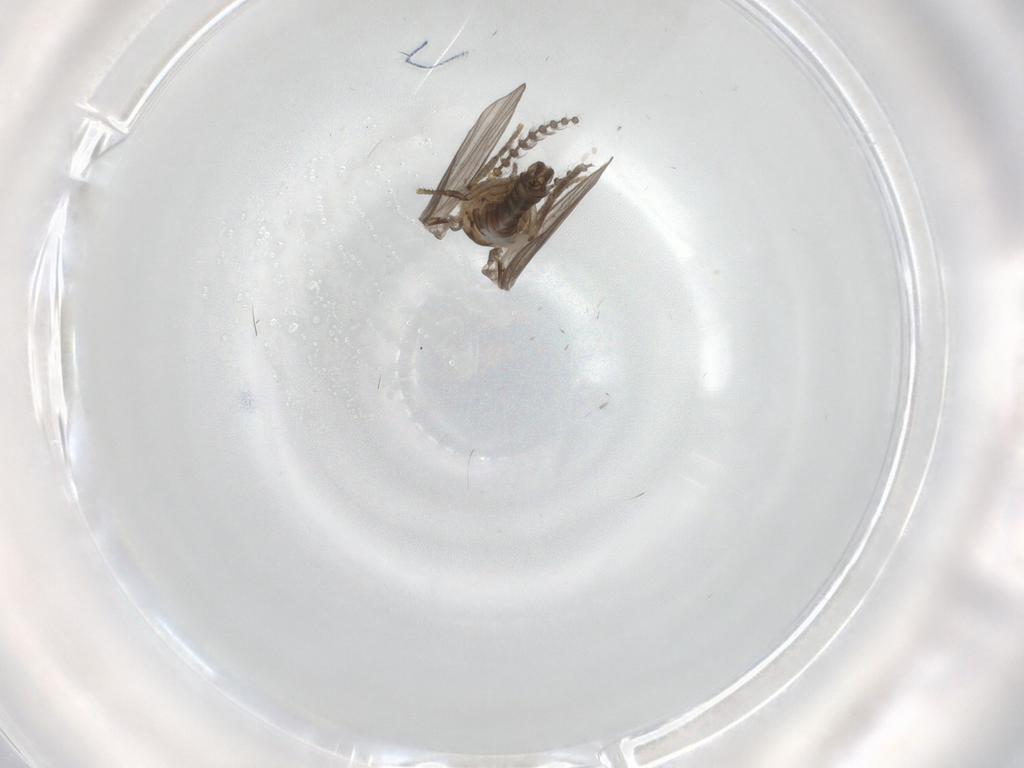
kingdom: Animalia
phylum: Arthropoda
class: Insecta
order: Diptera
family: Psychodidae
